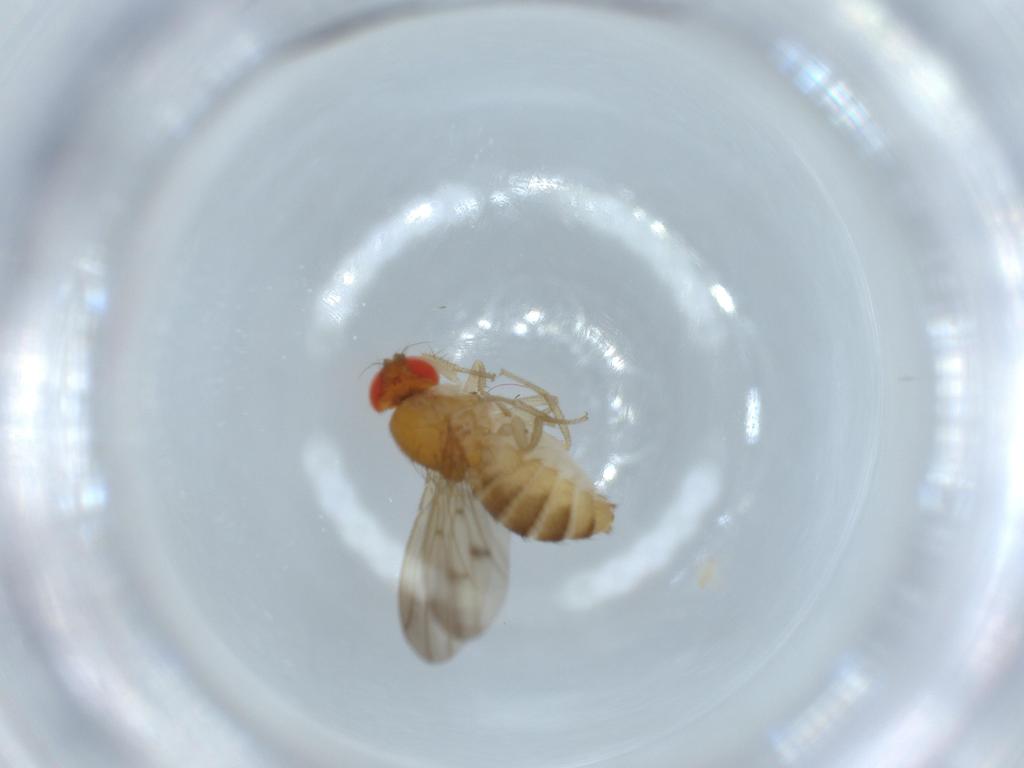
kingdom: Animalia
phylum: Arthropoda
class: Insecta
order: Diptera
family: Drosophilidae
